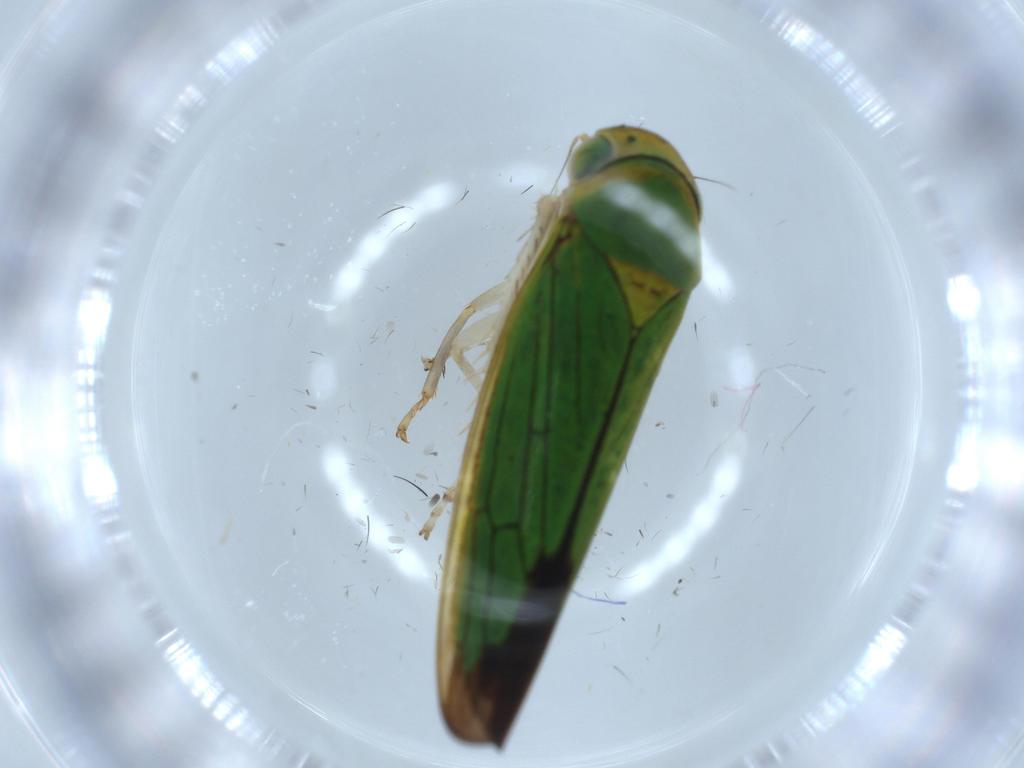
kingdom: Animalia
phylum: Arthropoda
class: Insecta
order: Hemiptera
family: Cicadellidae
